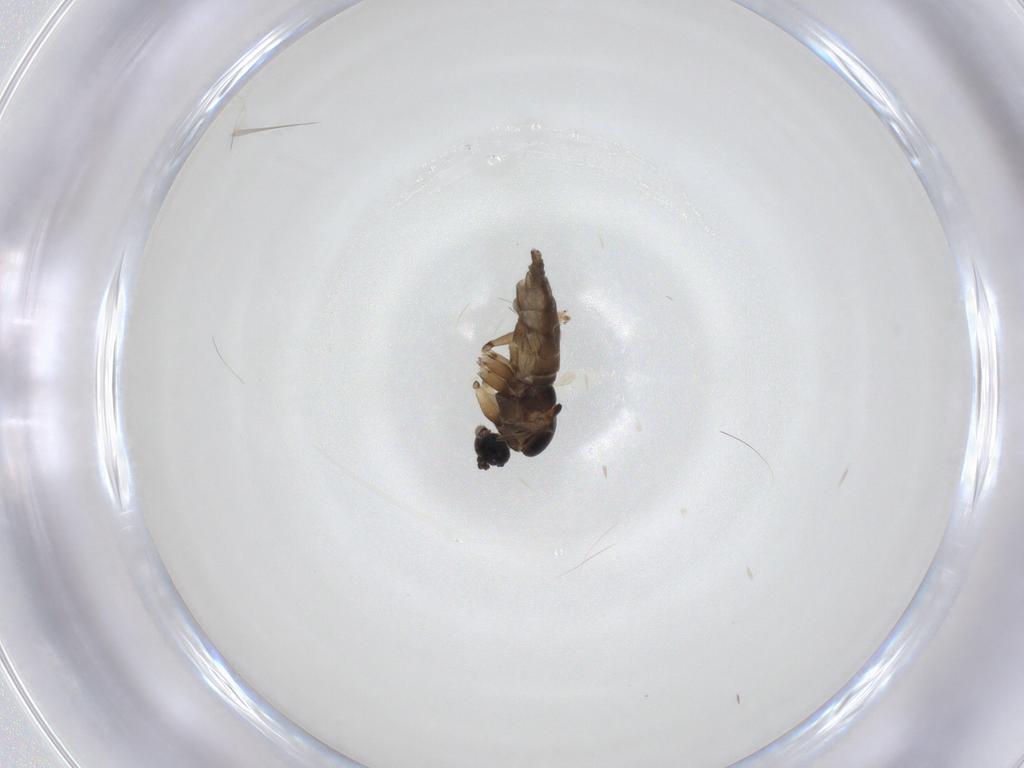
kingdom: Animalia
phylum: Arthropoda
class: Insecta
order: Diptera
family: Sciaridae
